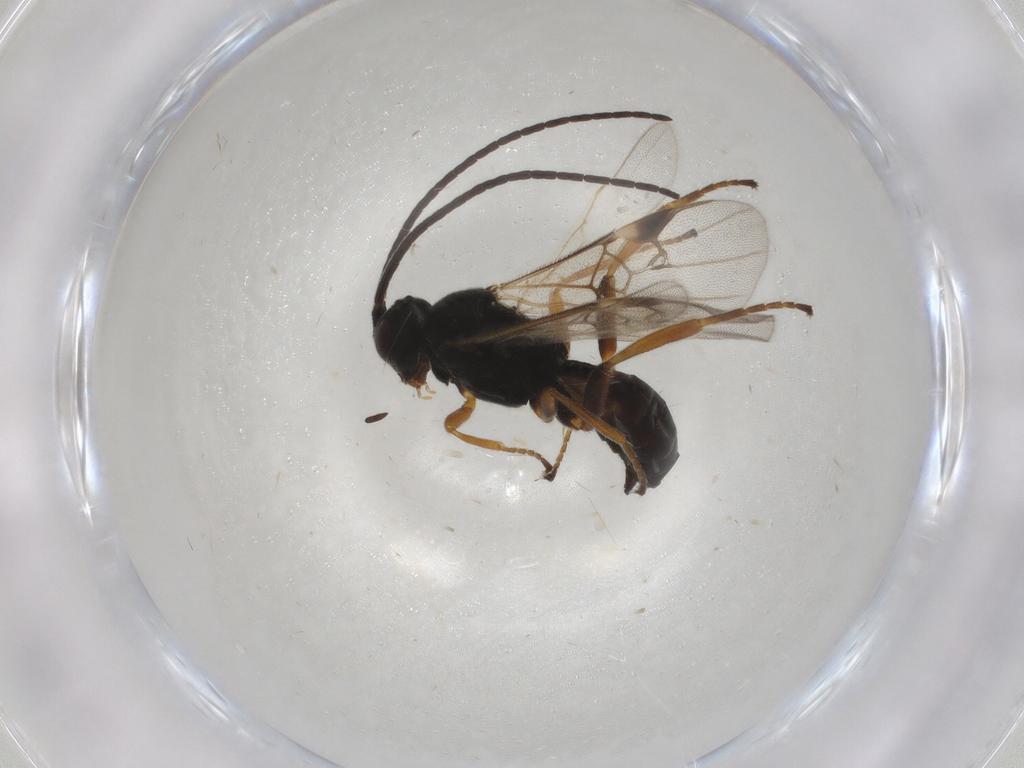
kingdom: Animalia
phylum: Arthropoda
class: Insecta
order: Hymenoptera
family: Braconidae
